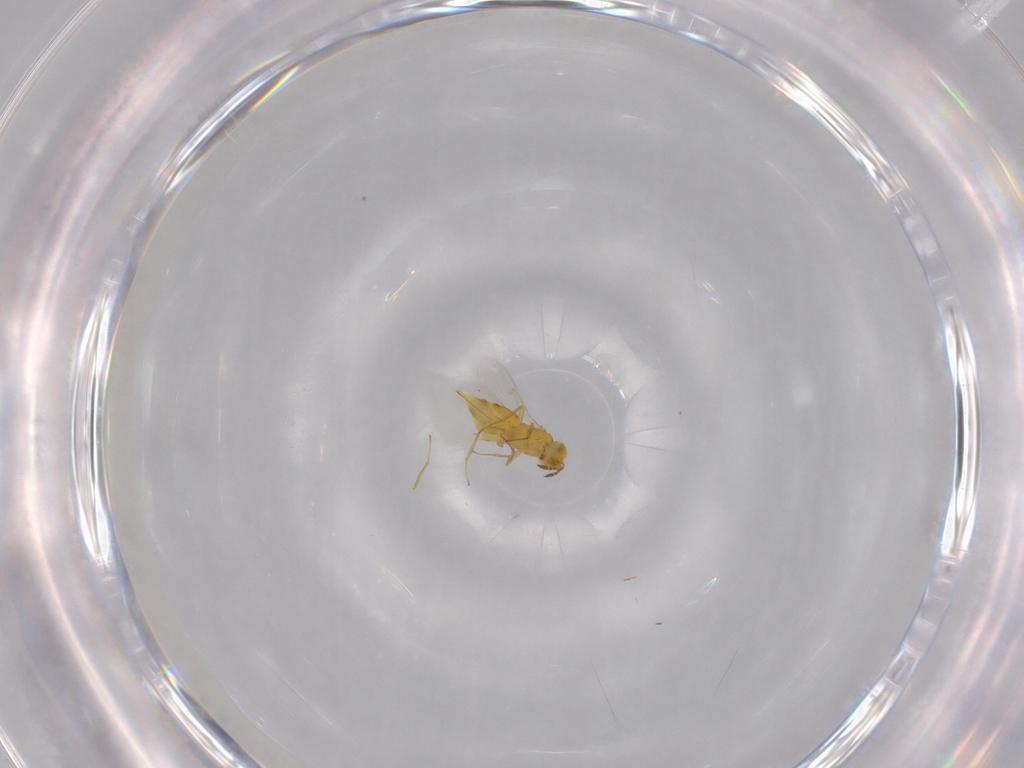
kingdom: Animalia
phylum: Arthropoda
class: Insecta
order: Hymenoptera
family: Aphelinidae
